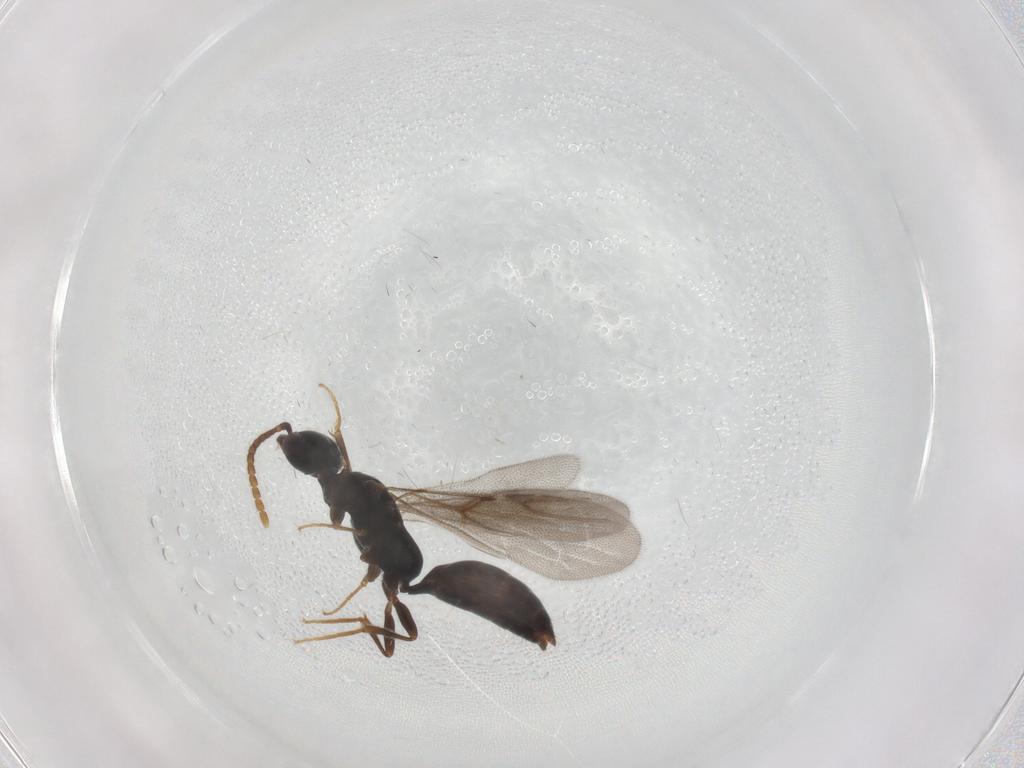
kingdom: Animalia
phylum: Arthropoda
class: Insecta
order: Hymenoptera
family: Bethylidae
